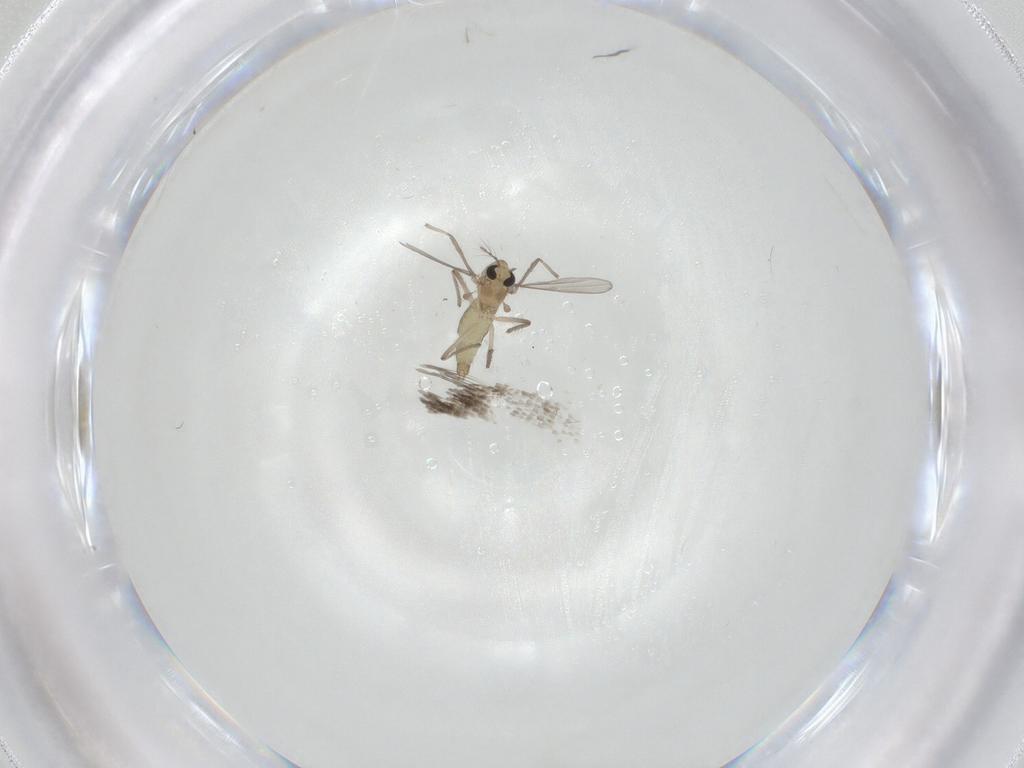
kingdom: Animalia
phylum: Arthropoda
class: Insecta
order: Diptera
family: Chironomidae
